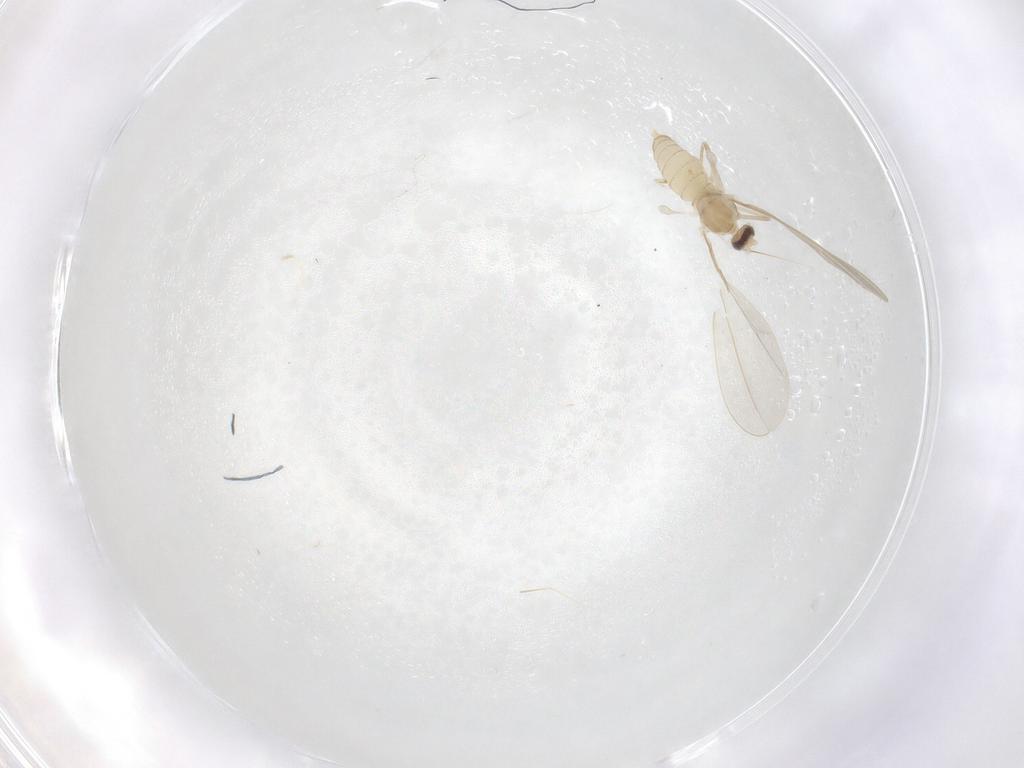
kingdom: Animalia
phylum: Arthropoda
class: Insecta
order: Diptera
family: Cecidomyiidae
